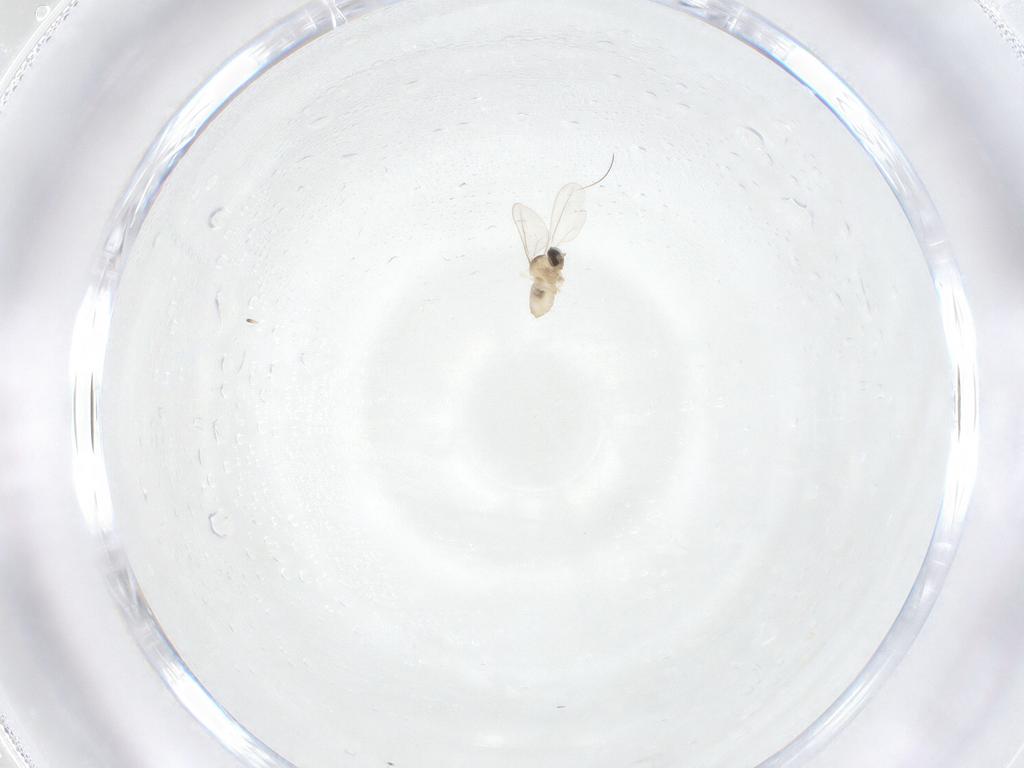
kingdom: Animalia
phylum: Arthropoda
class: Insecta
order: Diptera
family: Cecidomyiidae
